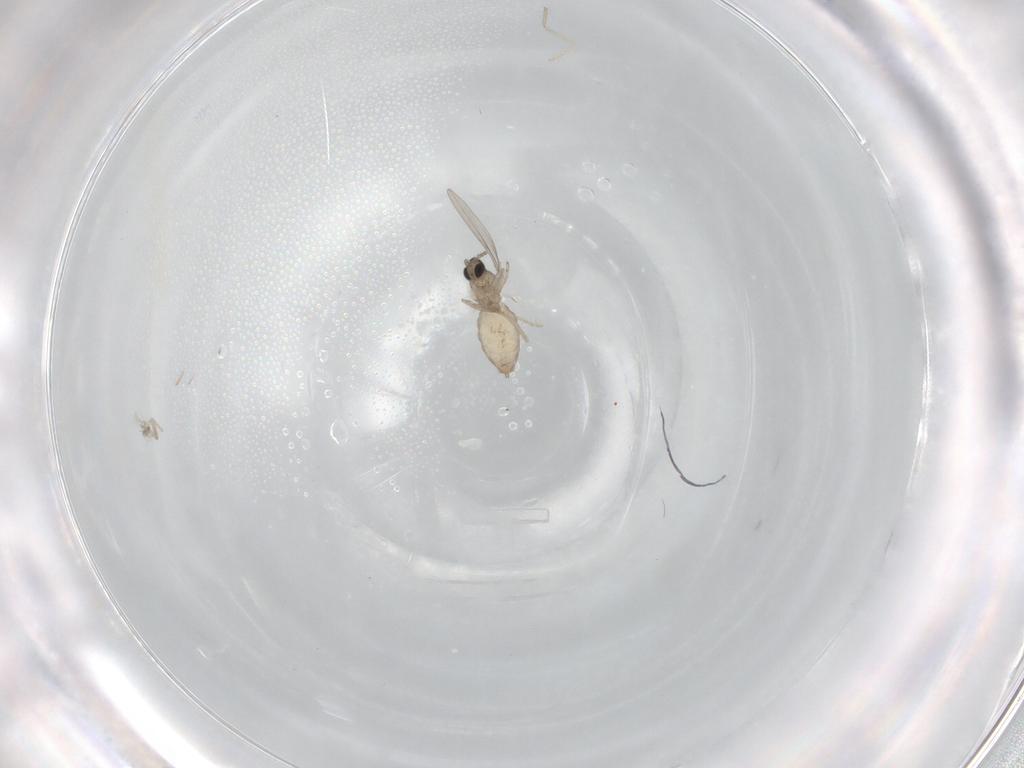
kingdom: Animalia
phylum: Arthropoda
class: Insecta
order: Diptera
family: Cecidomyiidae
